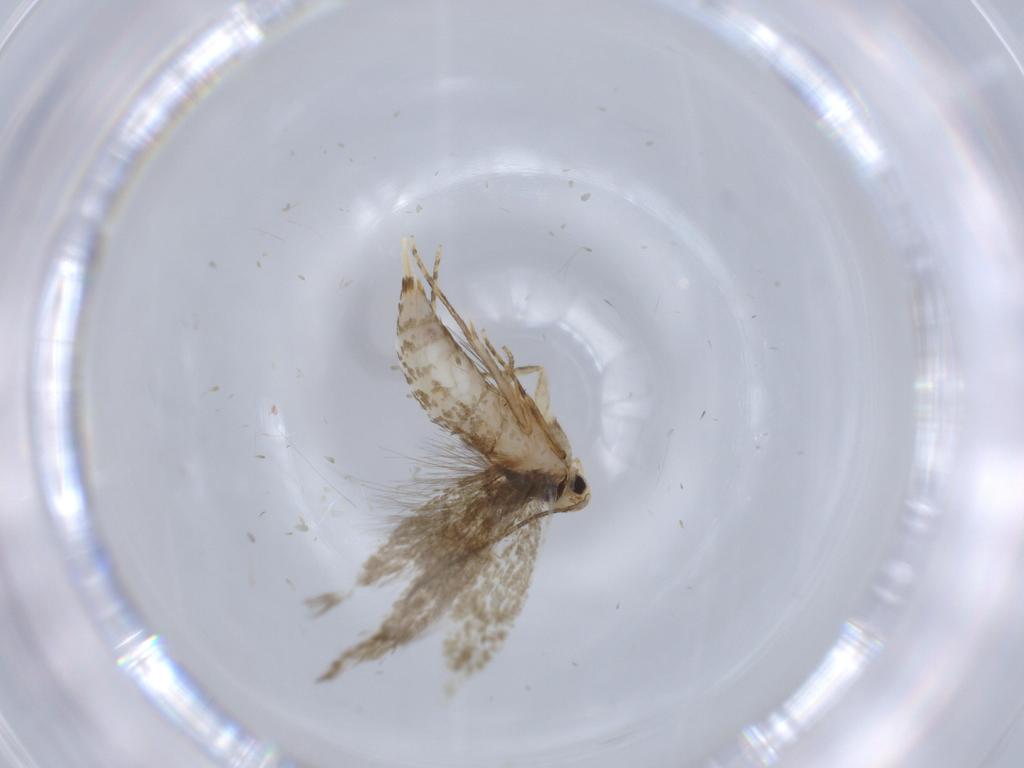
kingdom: Animalia
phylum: Arthropoda
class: Insecta
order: Lepidoptera
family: Tineidae
